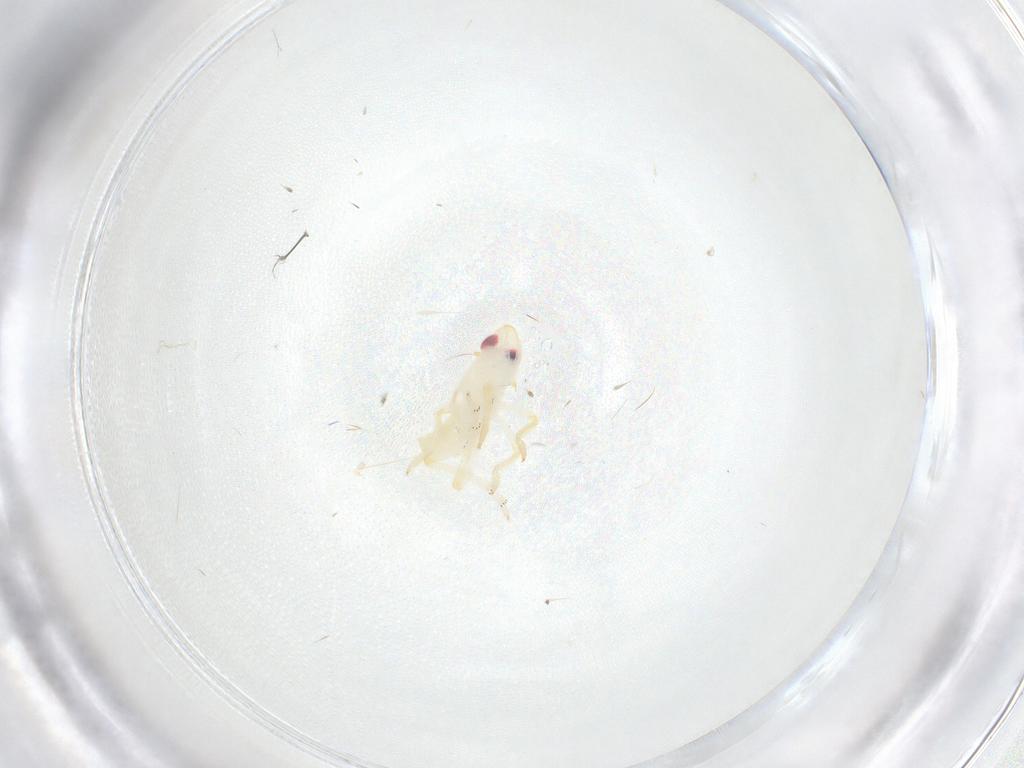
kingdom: Animalia
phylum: Arthropoda
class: Insecta
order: Hemiptera
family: Tropiduchidae
